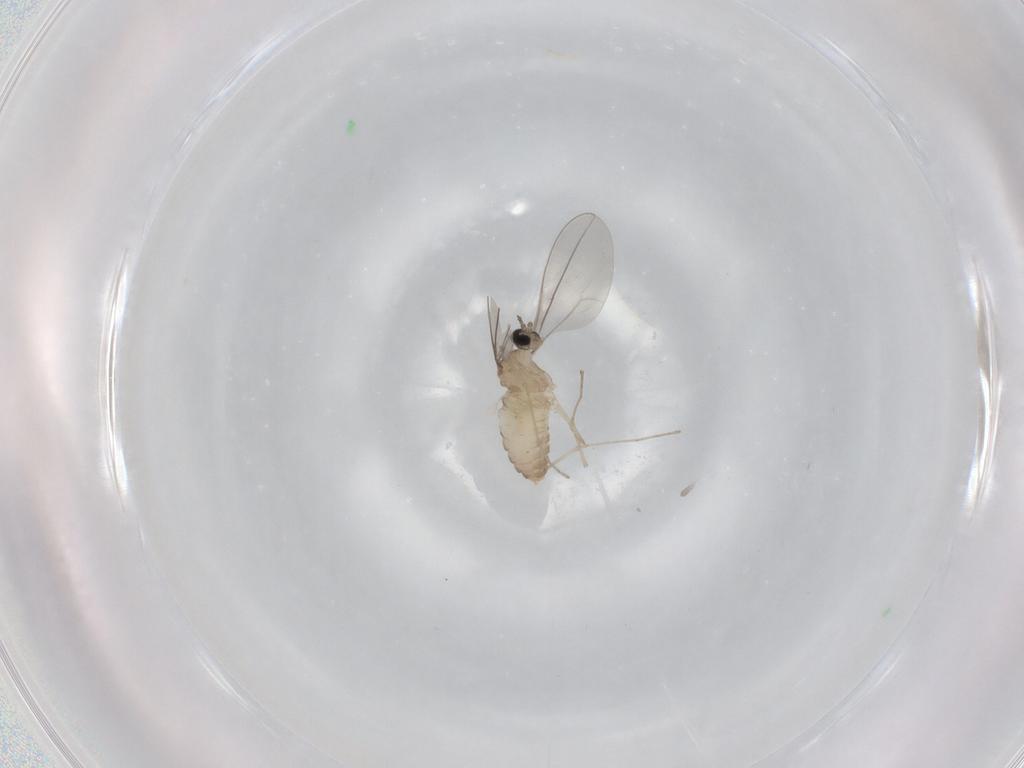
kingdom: Animalia
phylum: Arthropoda
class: Insecta
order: Diptera
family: Cecidomyiidae
